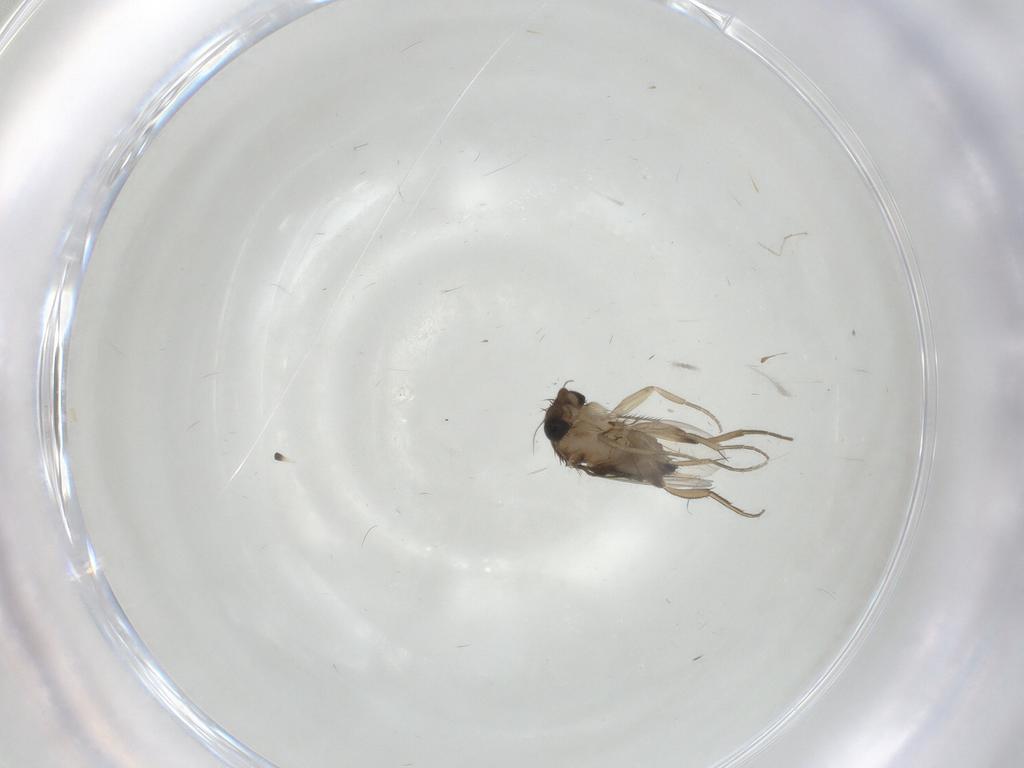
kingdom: Animalia
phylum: Arthropoda
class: Insecta
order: Diptera
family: Phoridae
